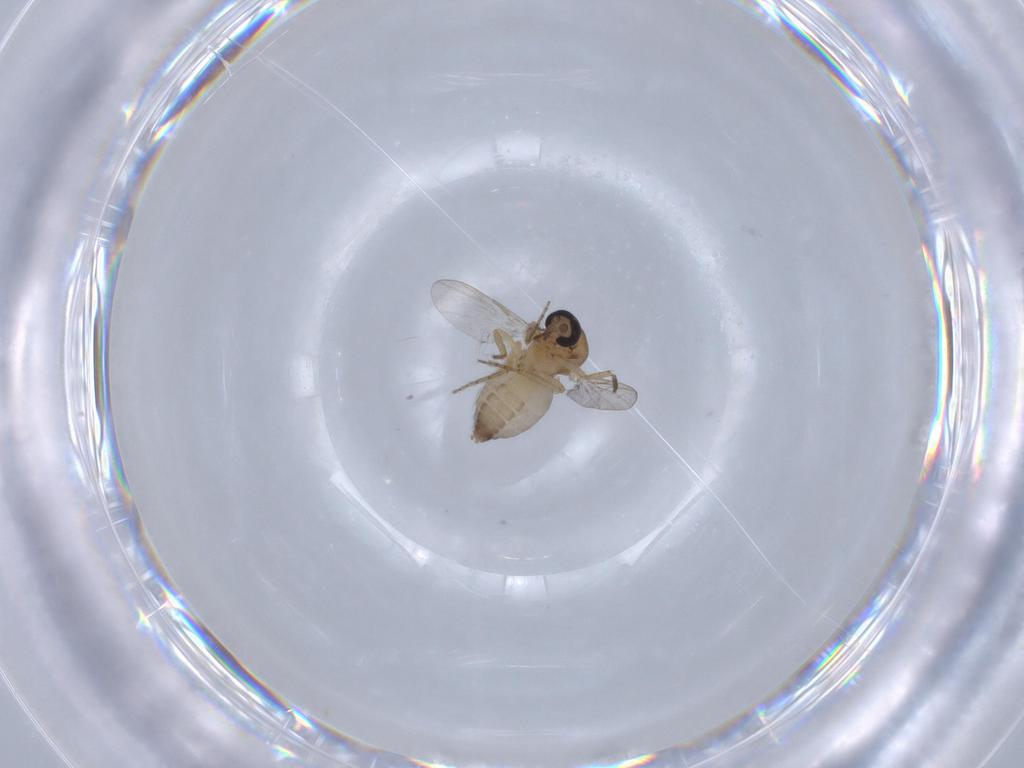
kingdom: Animalia
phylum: Arthropoda
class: Insecta
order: Diptera
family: Ceratopogonidae
